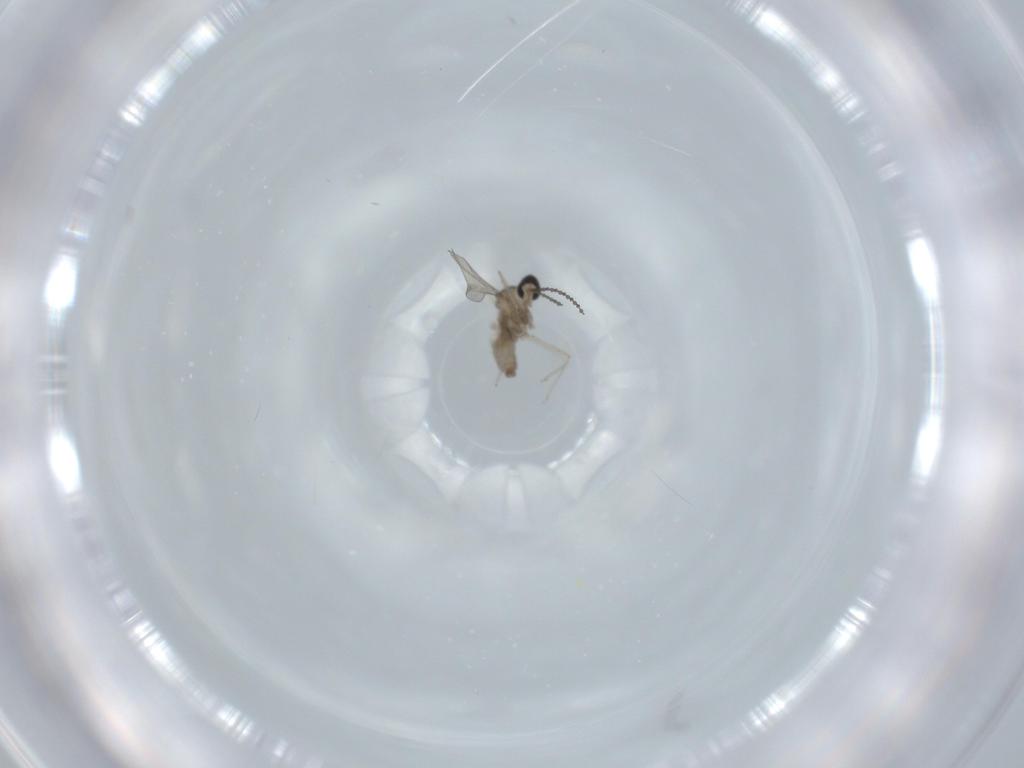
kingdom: Animalia
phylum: Arthropoda
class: Insecta
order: Diptera
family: Cecidomyiidae
